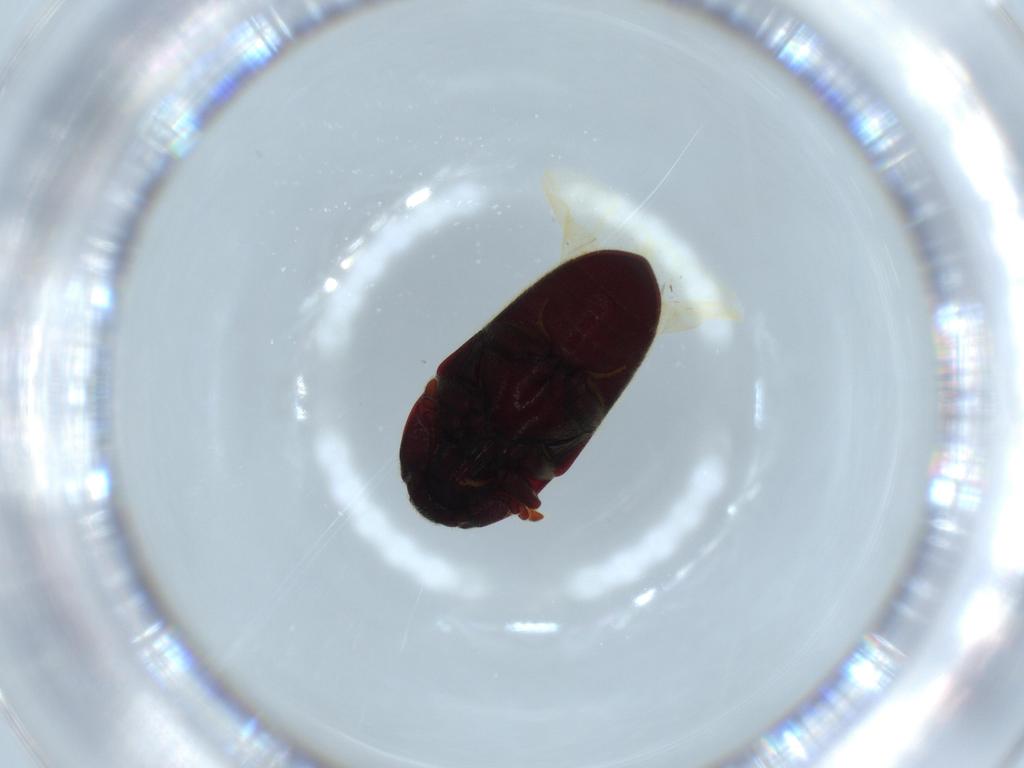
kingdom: Animalia
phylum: Arthropoda
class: Insecta
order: Coleoptera
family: Throscidae
